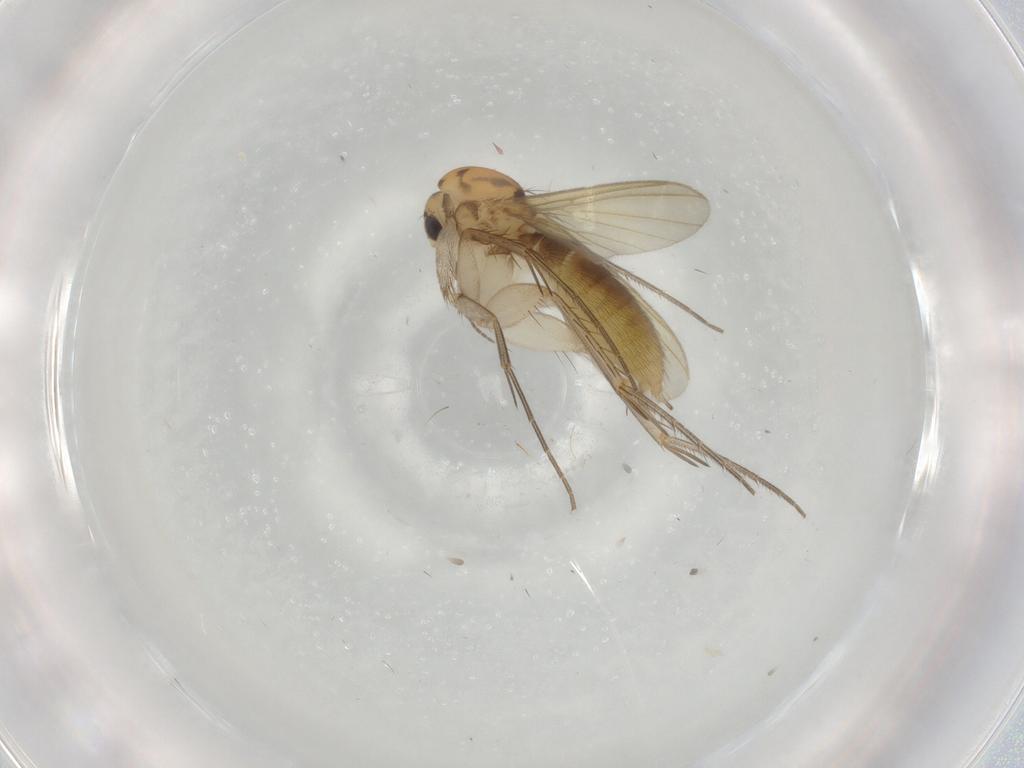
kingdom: Animalia
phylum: Arthropoda
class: Insecta
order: Diptera
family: Mycetophilidae
